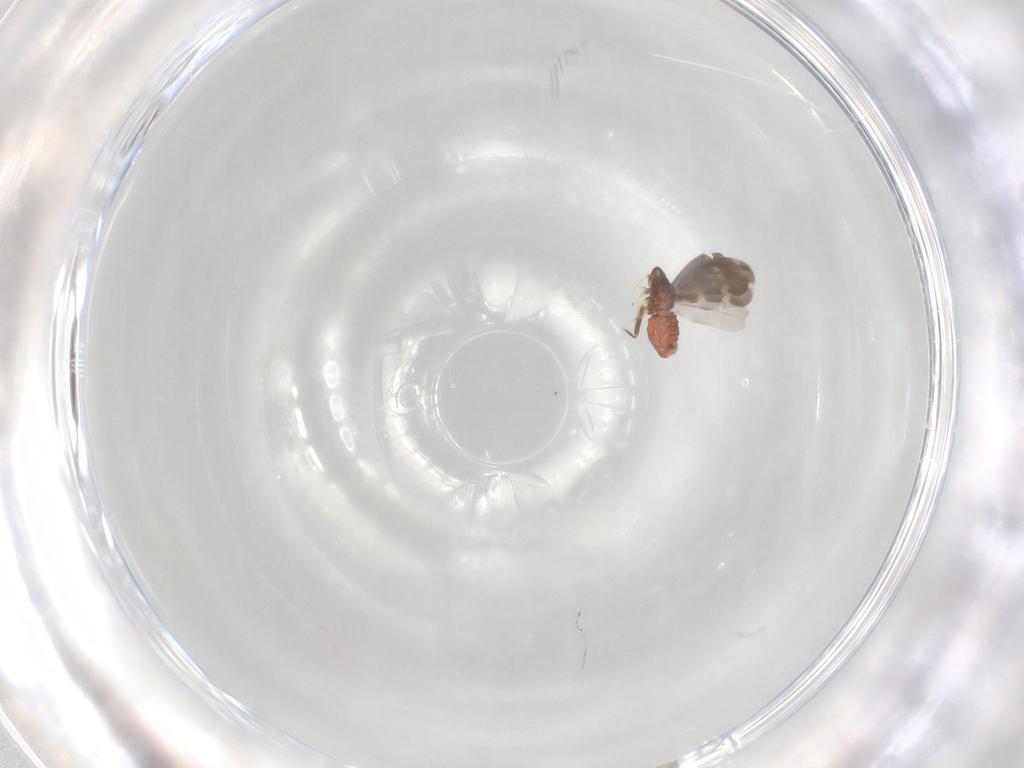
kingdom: Animalia
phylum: Arthropoda
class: Insecta
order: Hemiptera
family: Aleyrodidae
